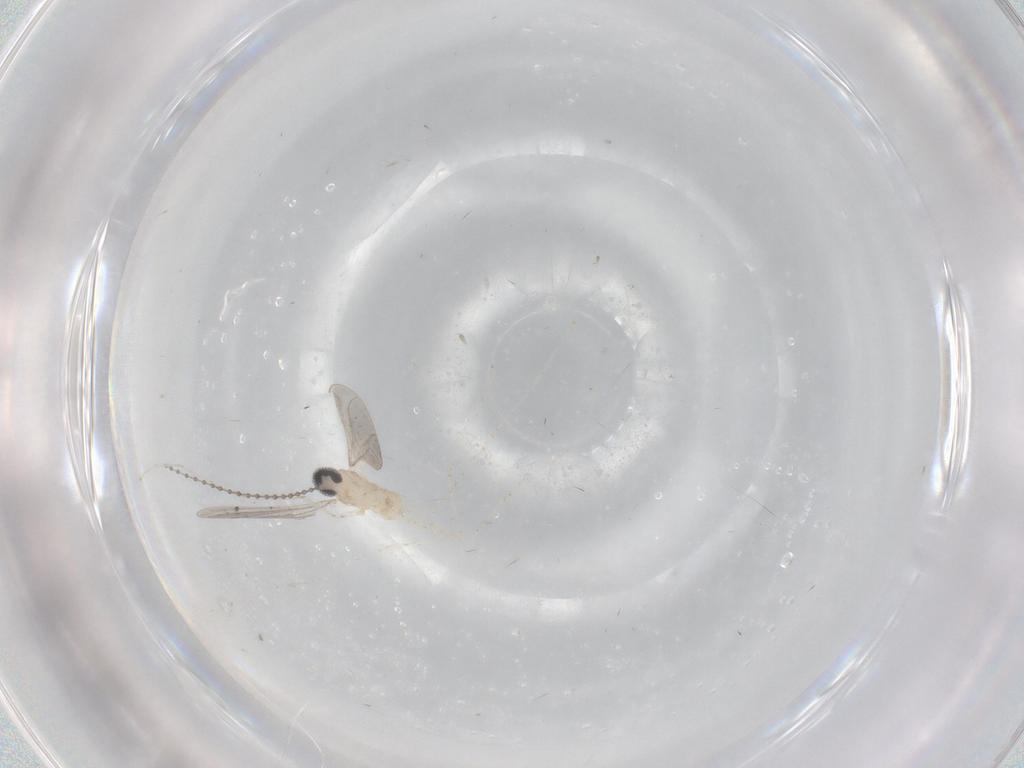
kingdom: Animalia
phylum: Arthropoda
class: Insecta
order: Diptera
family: Cecidomyiidae
